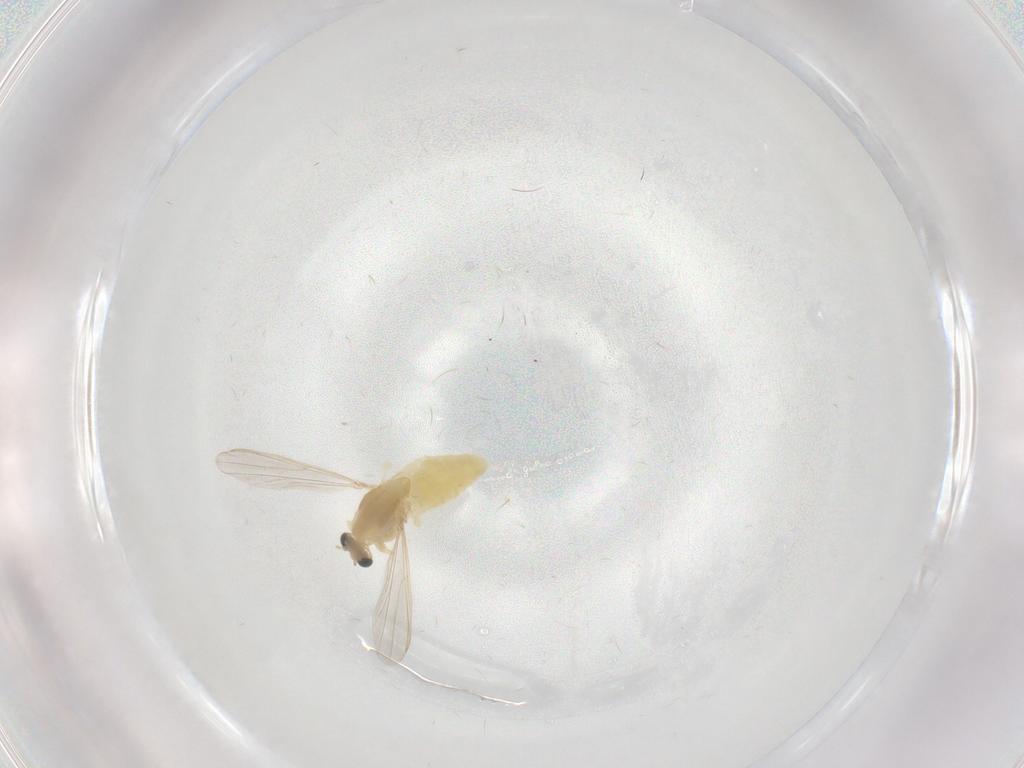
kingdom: Animalia
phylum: Arthropoda
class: Insecta
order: Diptera
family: Chironomidae
